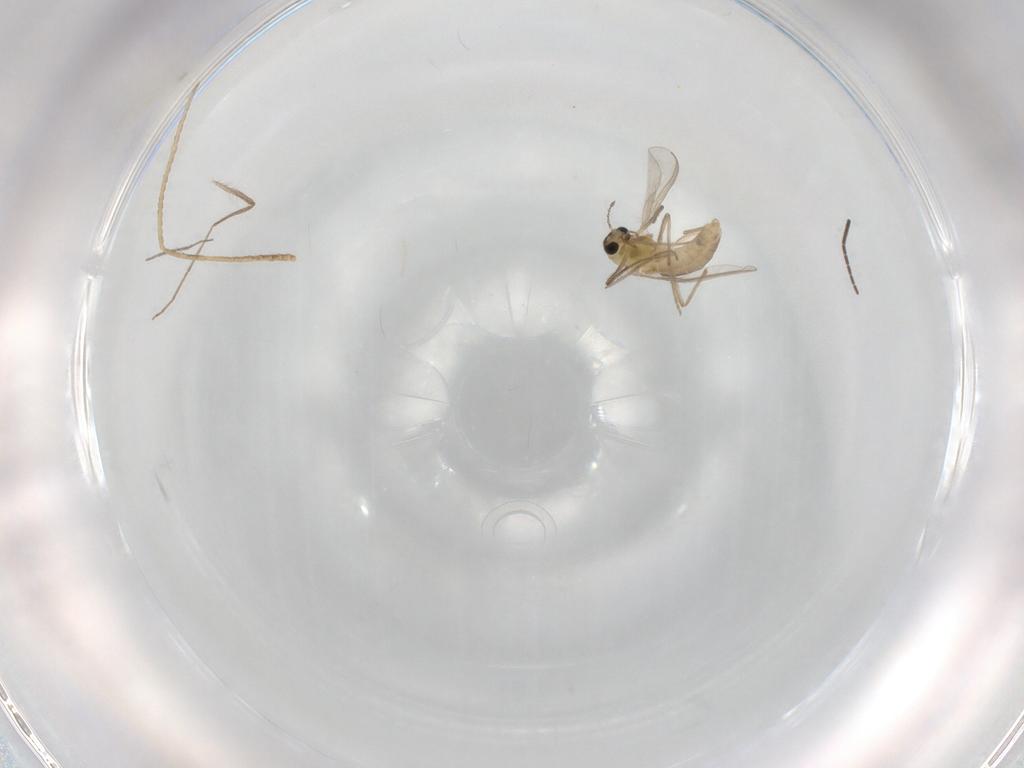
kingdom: Animalia
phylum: Arthropoda
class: Insecta
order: Diptera
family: Chironomidae
